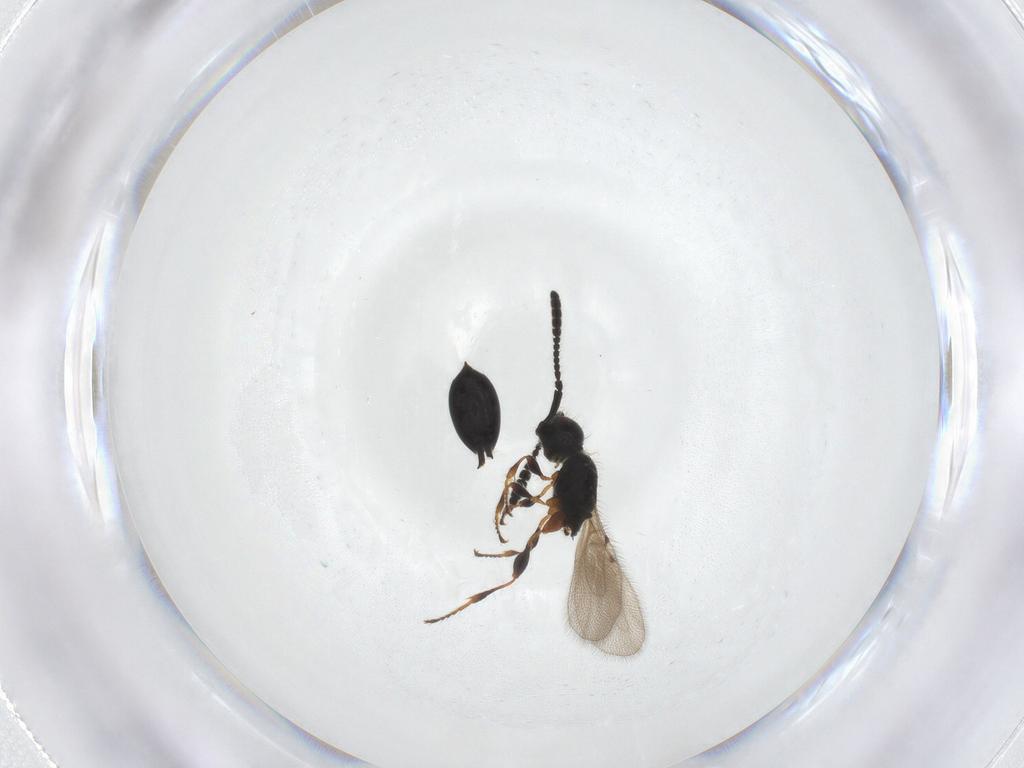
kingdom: Animalia
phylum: Arthropoda
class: Insecta
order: Hymenoptera
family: Diapriidae
